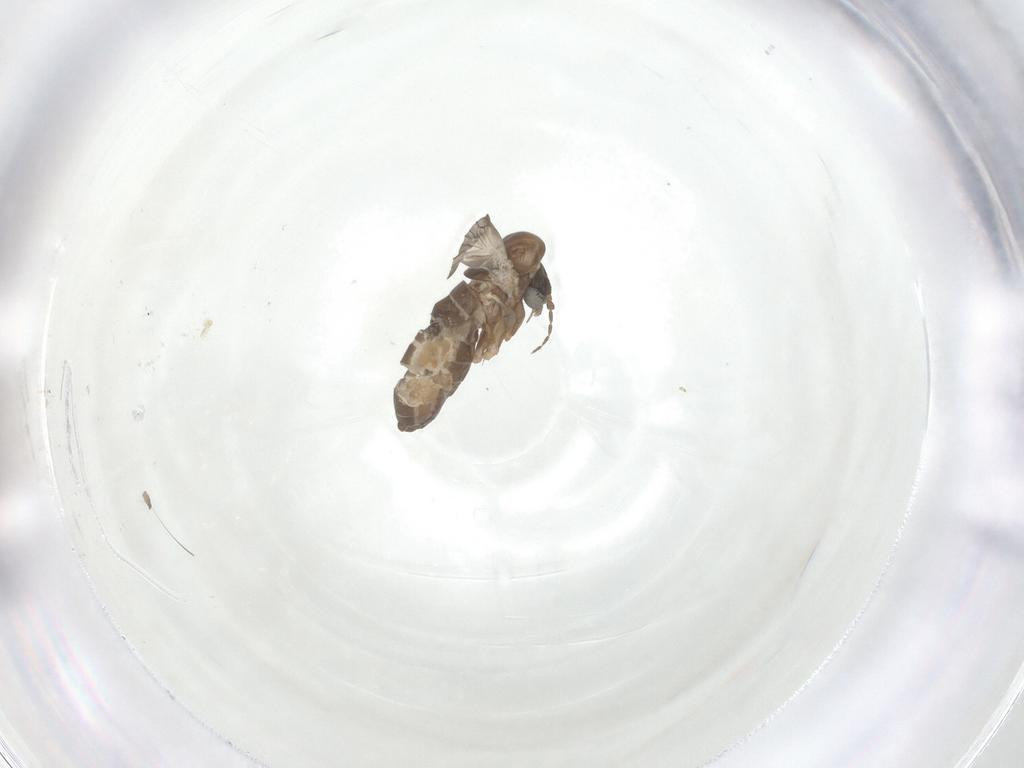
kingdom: Animalia
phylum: Arthropoda
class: Insecta
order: Diptera
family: Psychodidae
